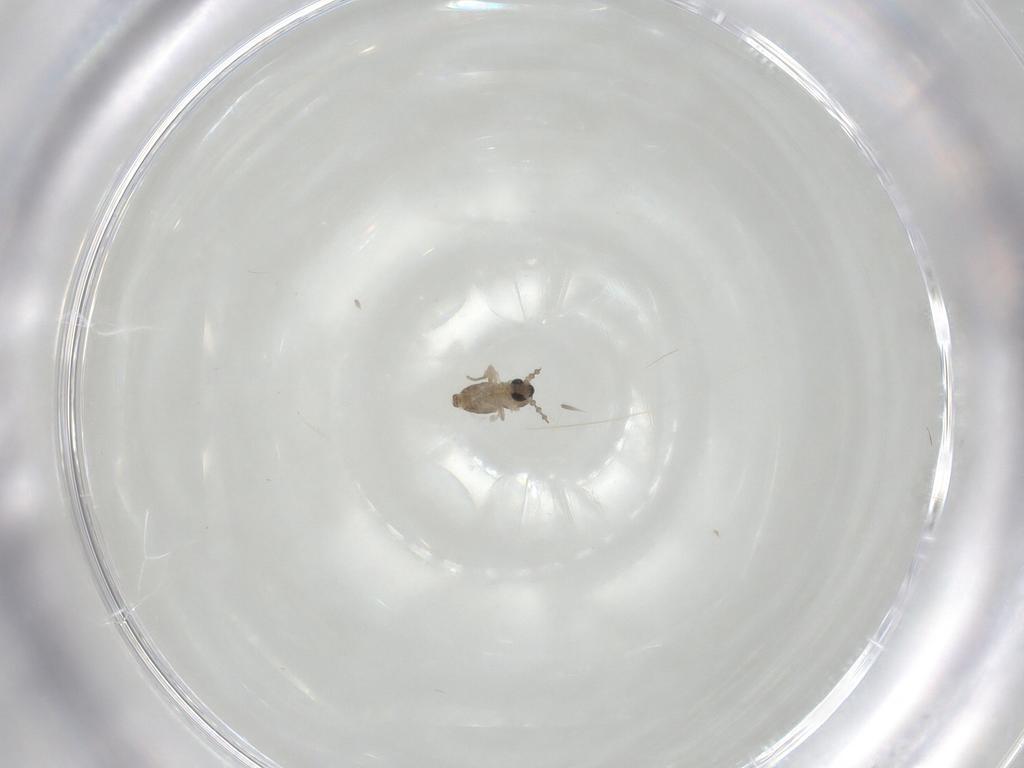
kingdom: Animalia
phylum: Arthropoda
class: Insecta
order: Diptera
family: Cecidomyiidae
